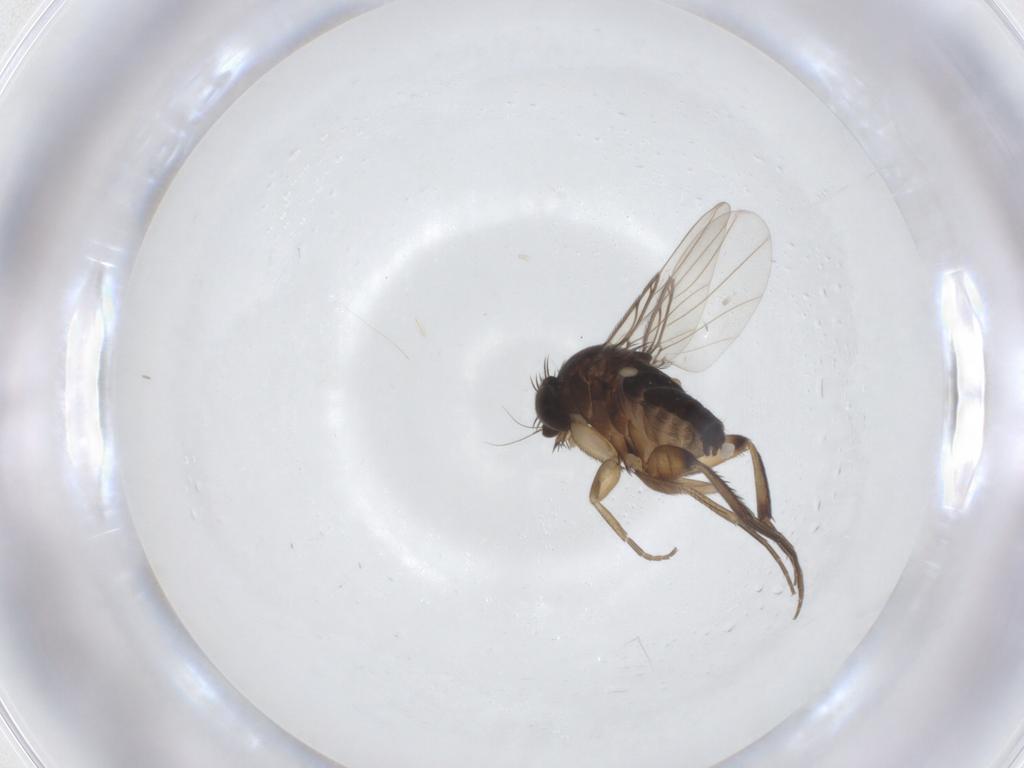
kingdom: Animalia
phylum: Arthropoda
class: Insecta
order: Diptera
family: Phoridae
